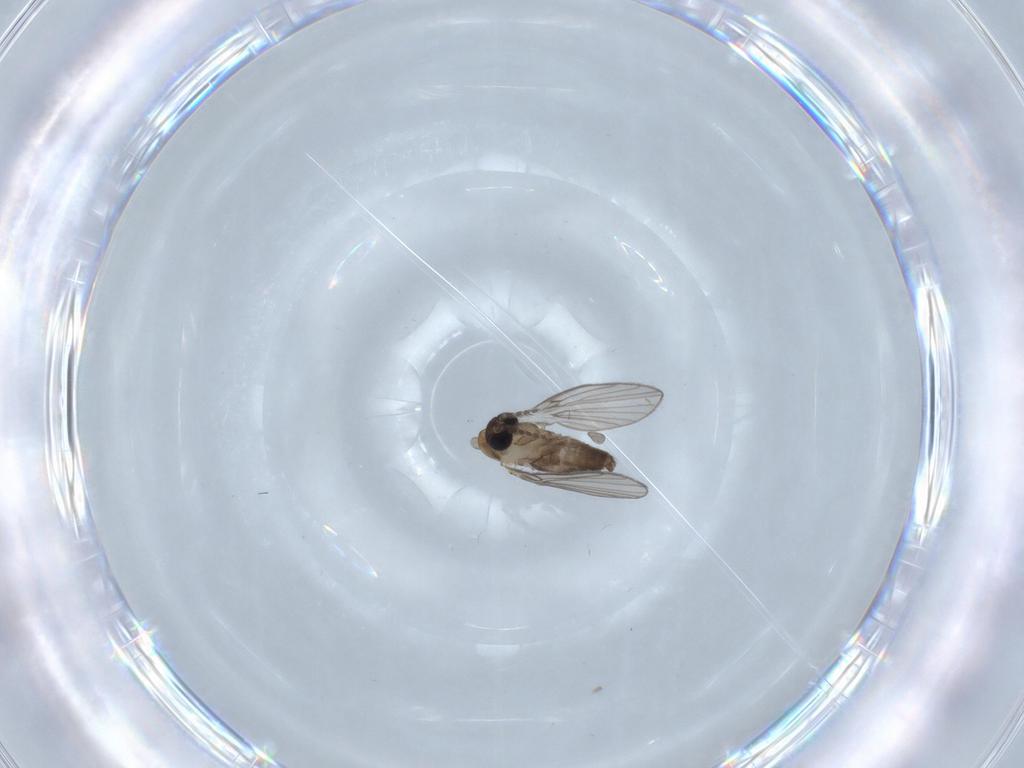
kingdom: Animalia
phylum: Arthropoda
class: Insecta
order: Diptera
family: Psychodidae
